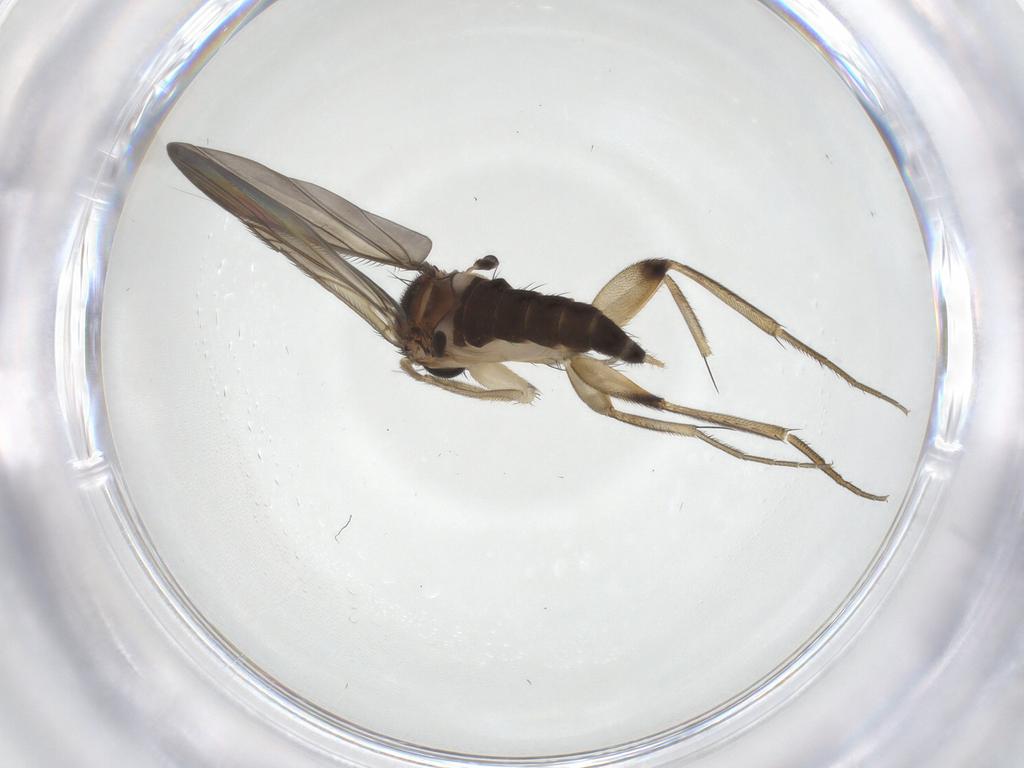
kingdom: Animalia
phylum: Arthropoda
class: Insecta
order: Diptera
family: Phoridae
